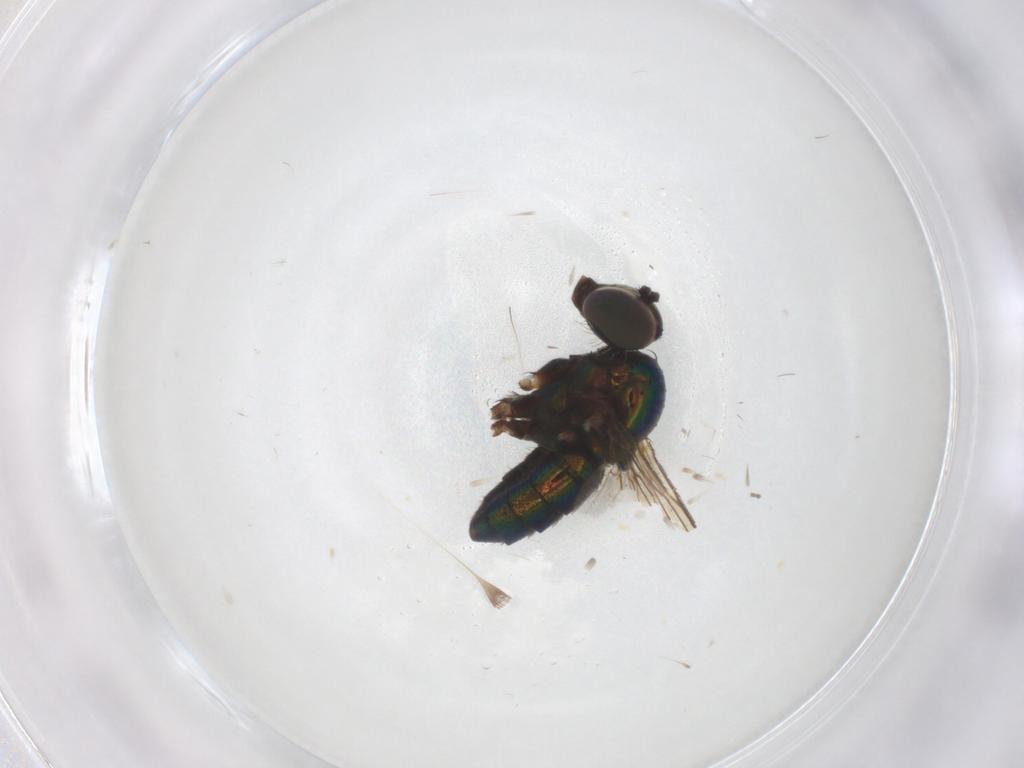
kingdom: Animalia
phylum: Arthropoda
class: Insecta
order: Diptera
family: Dolichopodidae
